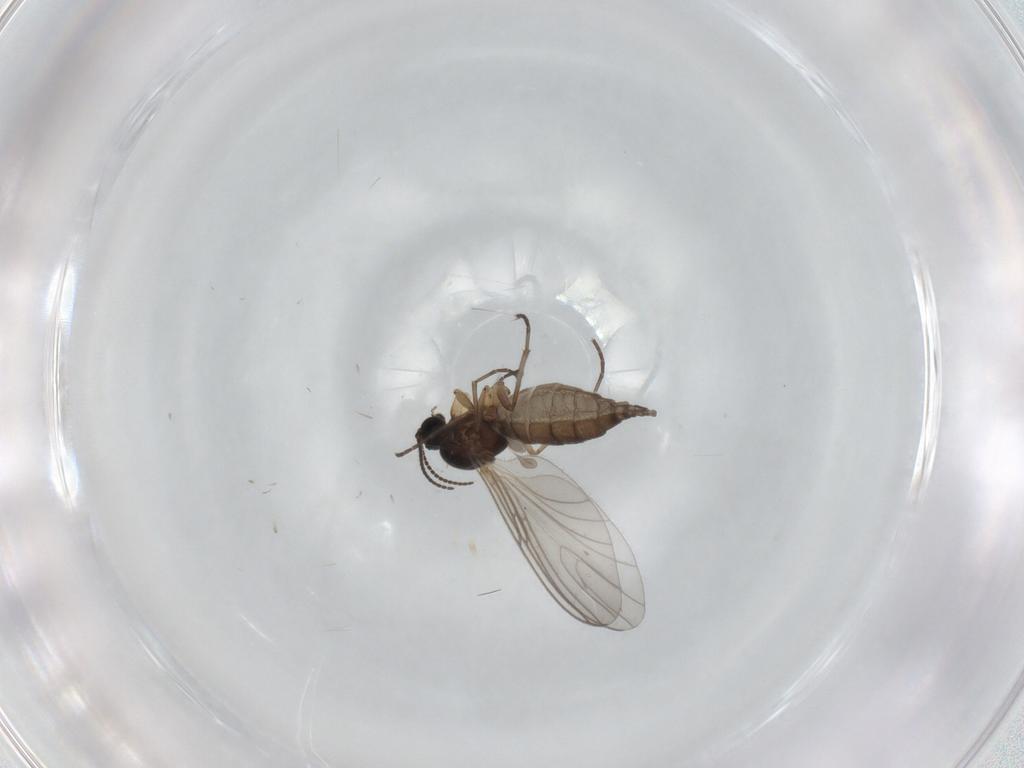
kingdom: Animalia
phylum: Arthropoda
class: Insecta
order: Diptera
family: Sciaridae
